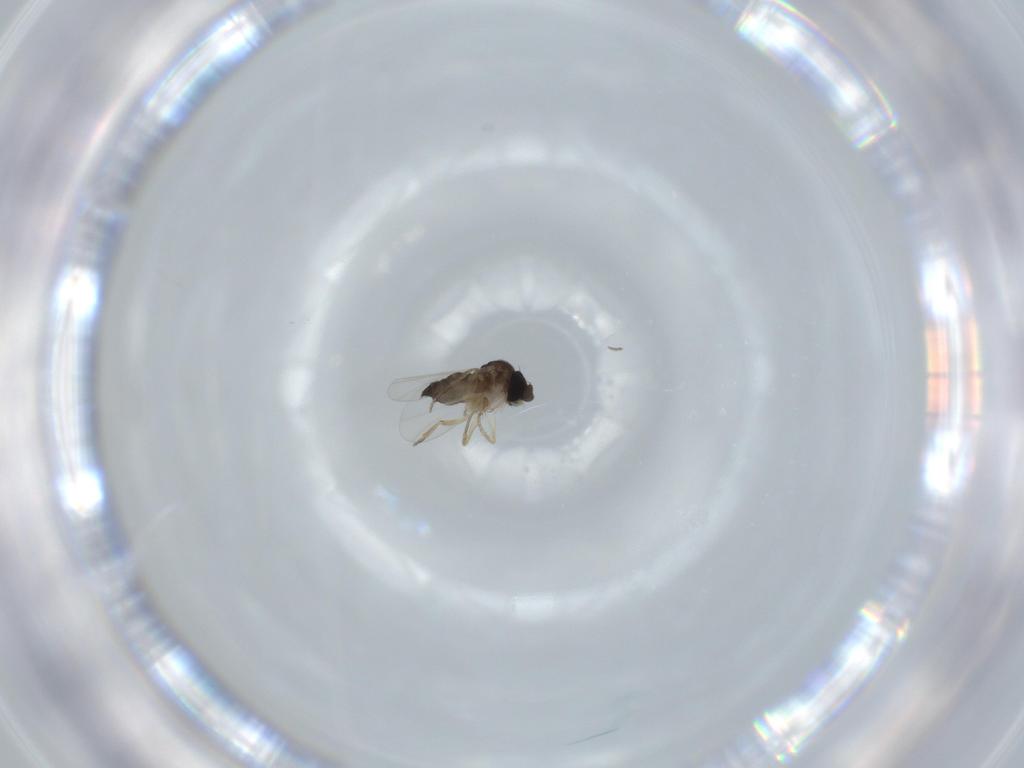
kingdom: Animalia
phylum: Arthropoda
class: Insecta
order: Diptera
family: Phoridae
